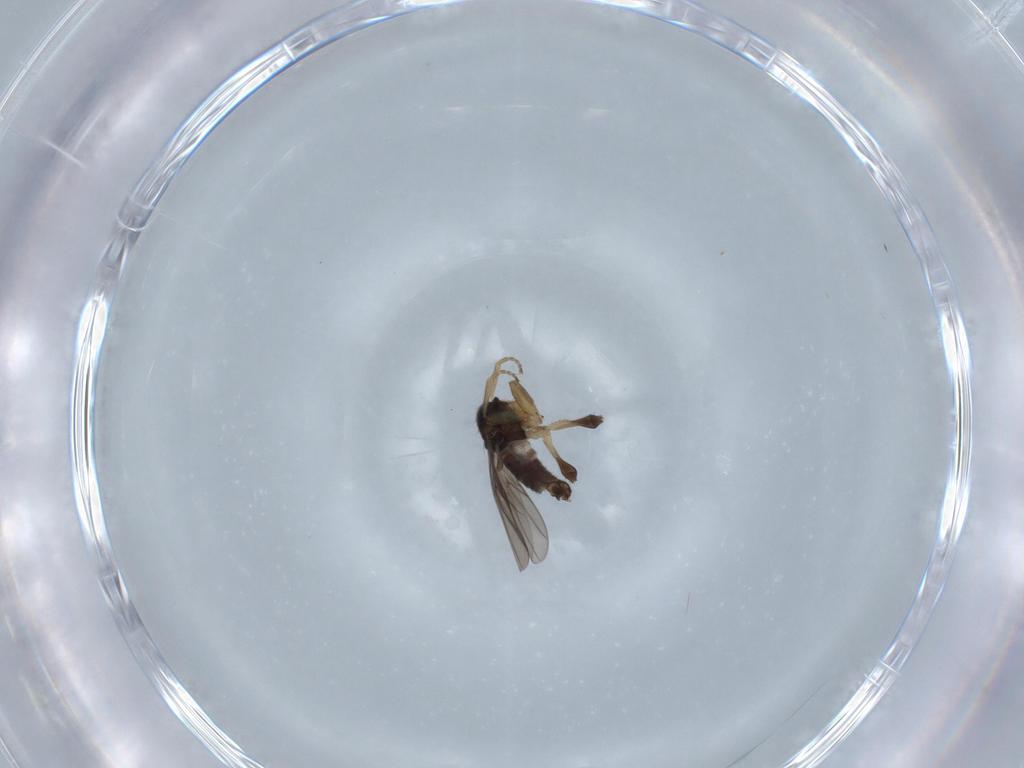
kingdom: Animalia
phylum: Arthropoda
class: Insecta
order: Diptera
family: Hybotidae
